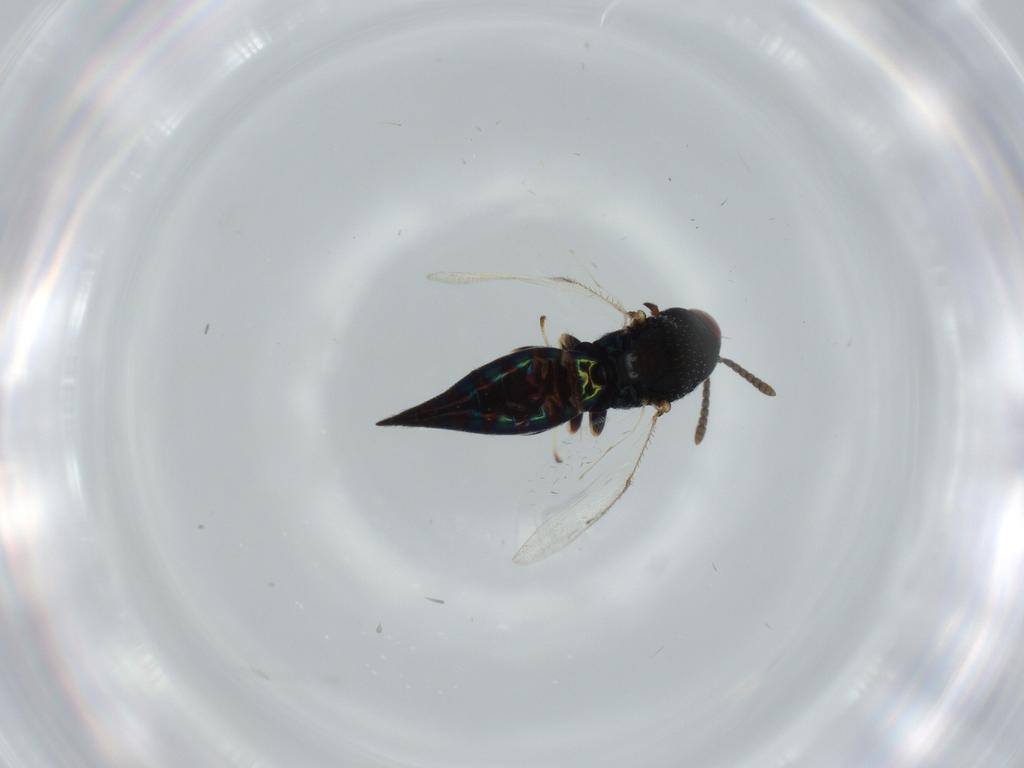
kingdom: Animalia
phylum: Arthropoda
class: Insecta
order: Hymenoptera
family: Pteromalidae
